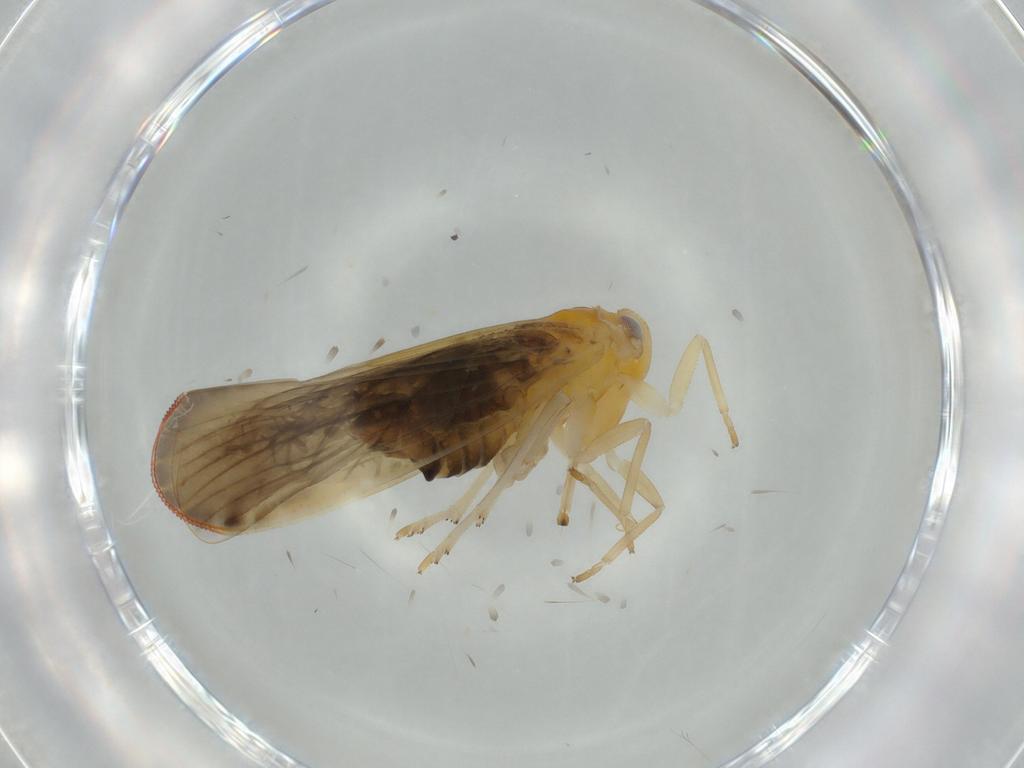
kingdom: Animalia
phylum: Arthropoda
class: Insecta
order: Hemiptera
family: Derbidae
